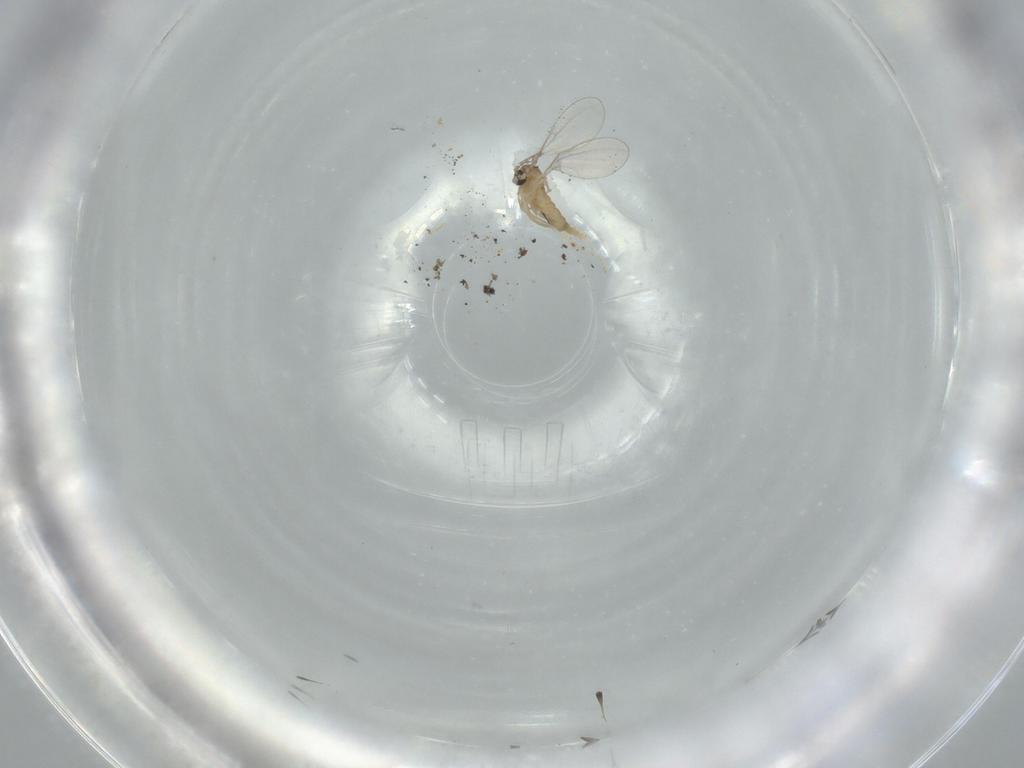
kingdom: Animalia
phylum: Arthropoda
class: Insecta
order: Diptera
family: Cecidomyiidae
